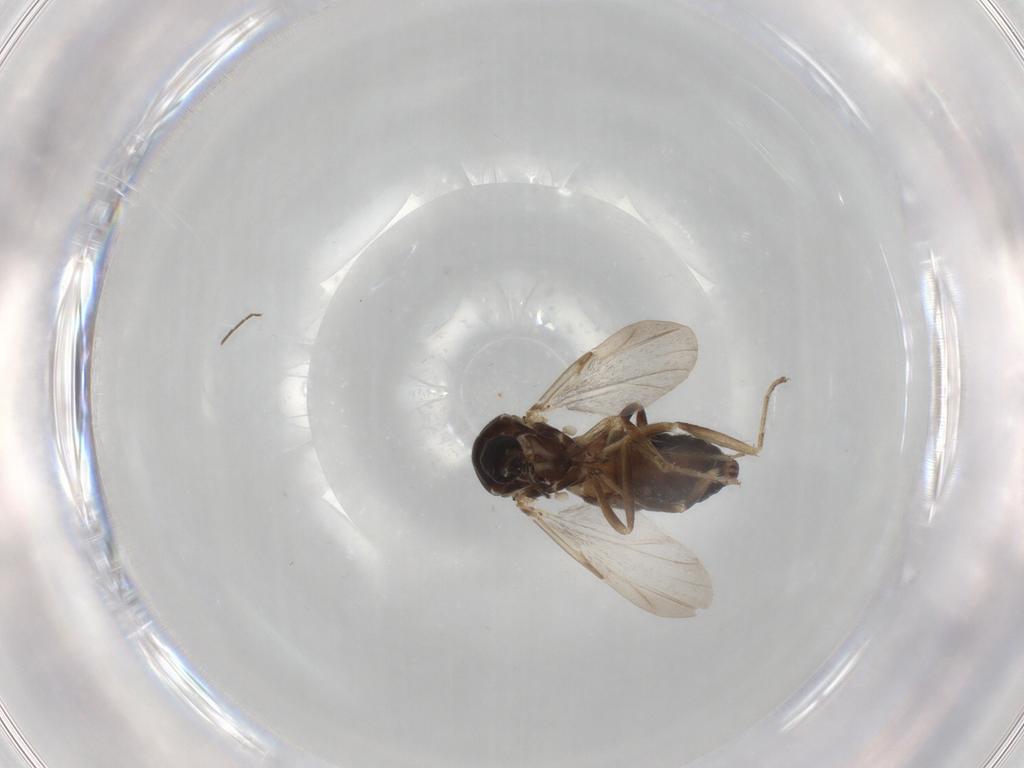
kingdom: Animalia
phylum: Arthropoda
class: Insecta
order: Diptera
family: Ceratopogonidae
